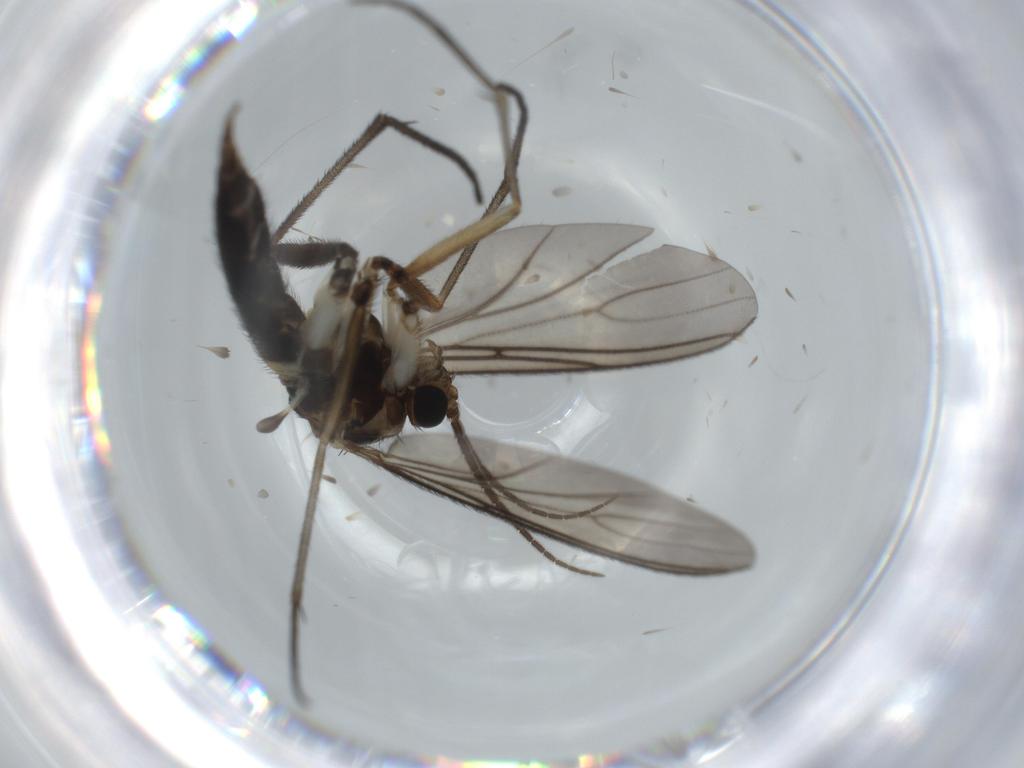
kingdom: Animalia
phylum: Arthropoda
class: Insecta
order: Diptera
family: Sciaridae
